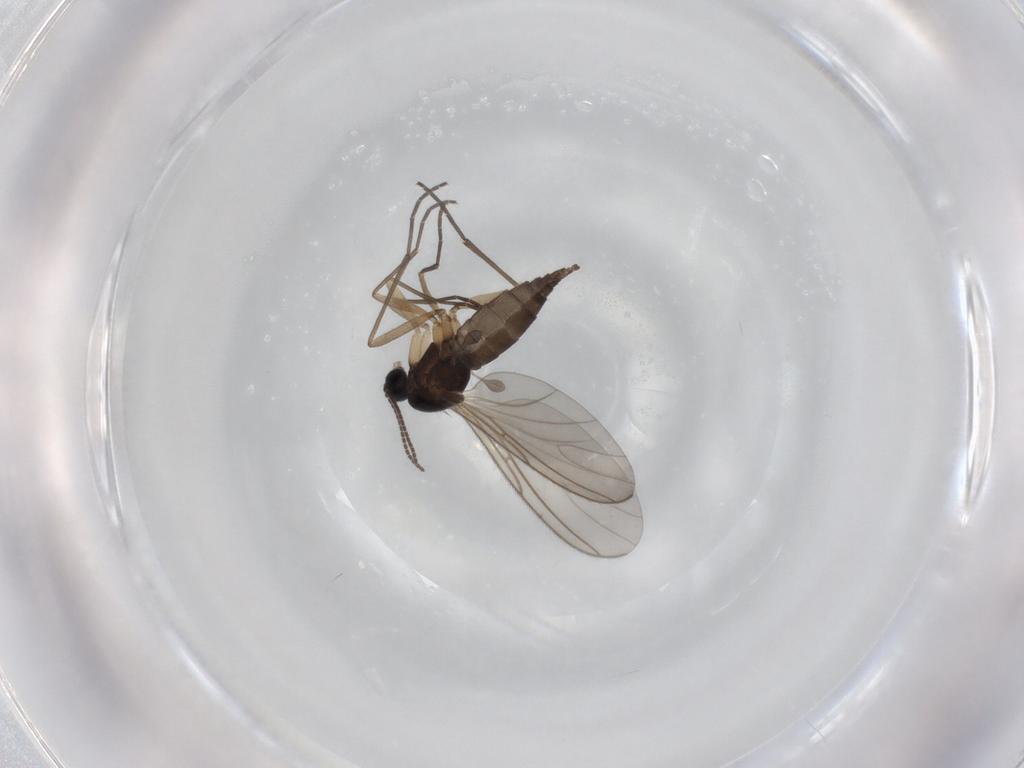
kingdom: Animalia
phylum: Arthropoda
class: Insecta
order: Diptera
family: Sciaridae
